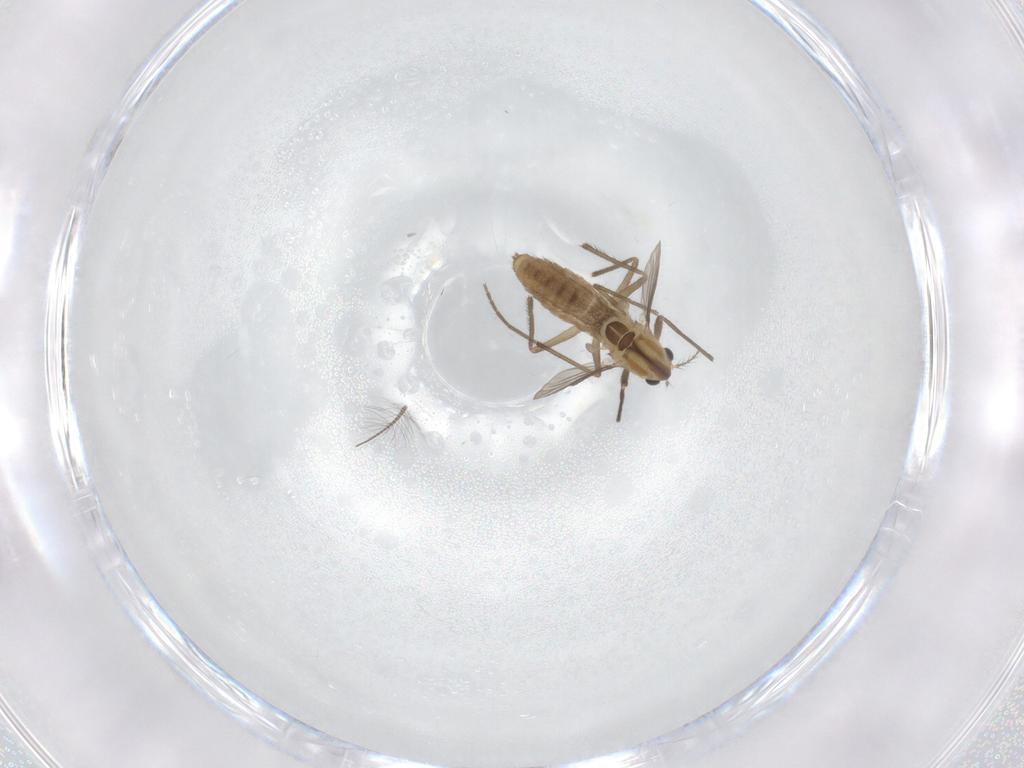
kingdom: Animalia
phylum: Arthropoda
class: Insecta
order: Diptera
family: Chironomidae
